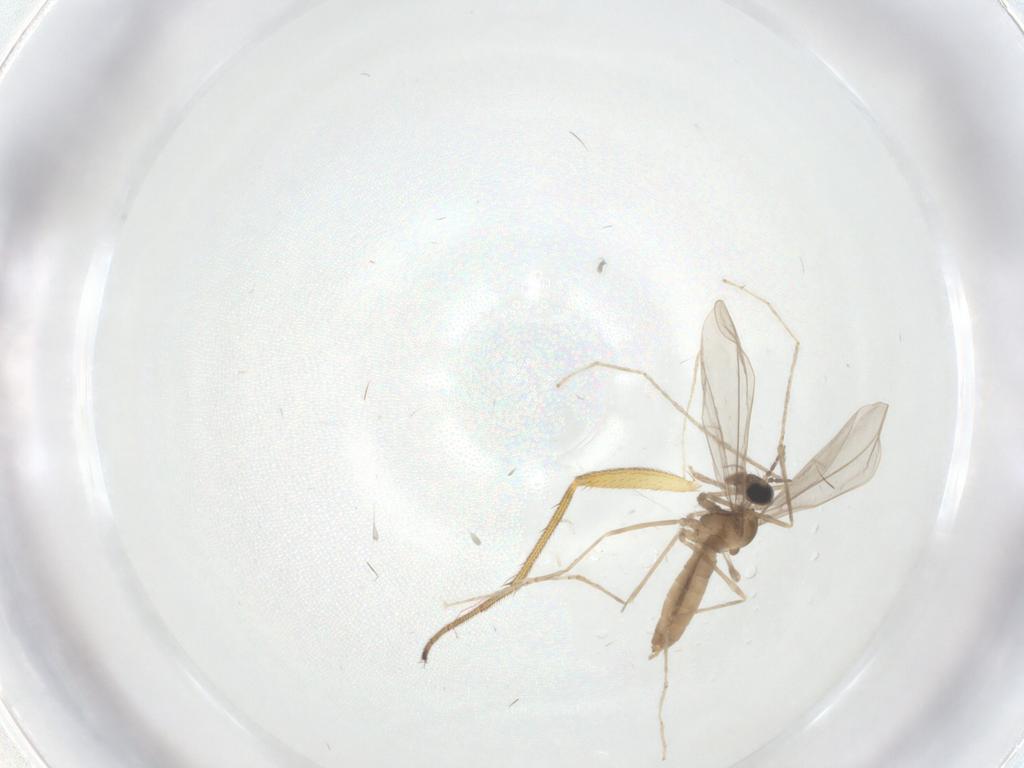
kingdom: Animalia
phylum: Arthropoda
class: Insecta
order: Diptera
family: Dolichopodidae
